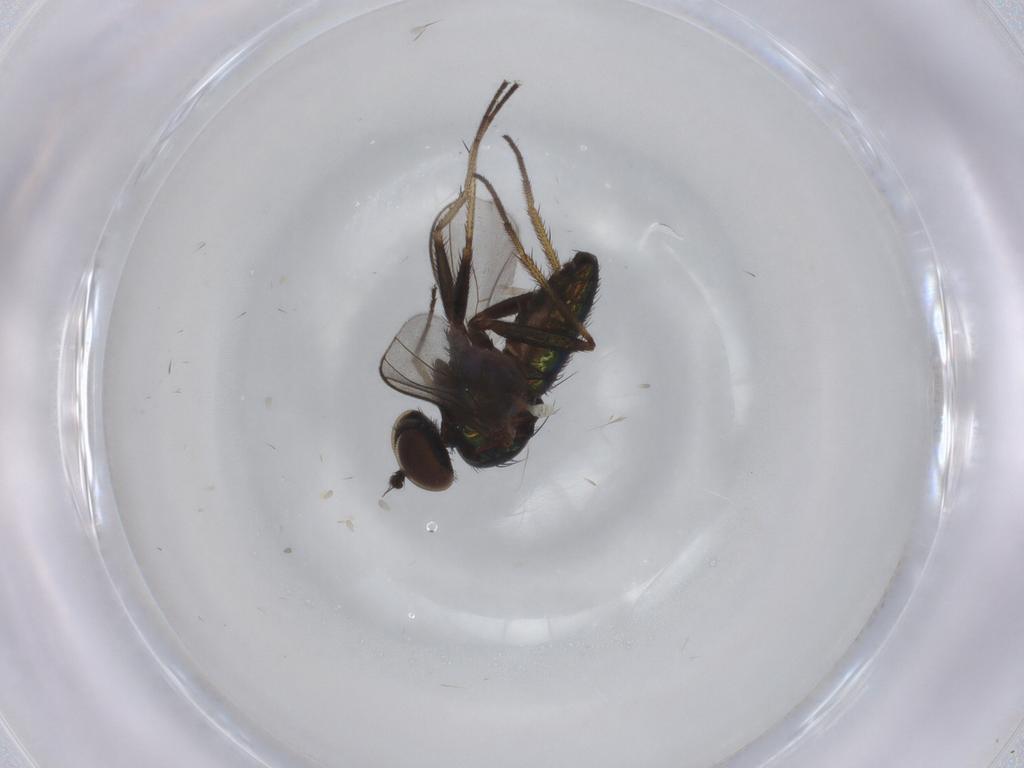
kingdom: Animalia
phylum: Arthropoda
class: Insecta
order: Diptera
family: Dolichopodidae
